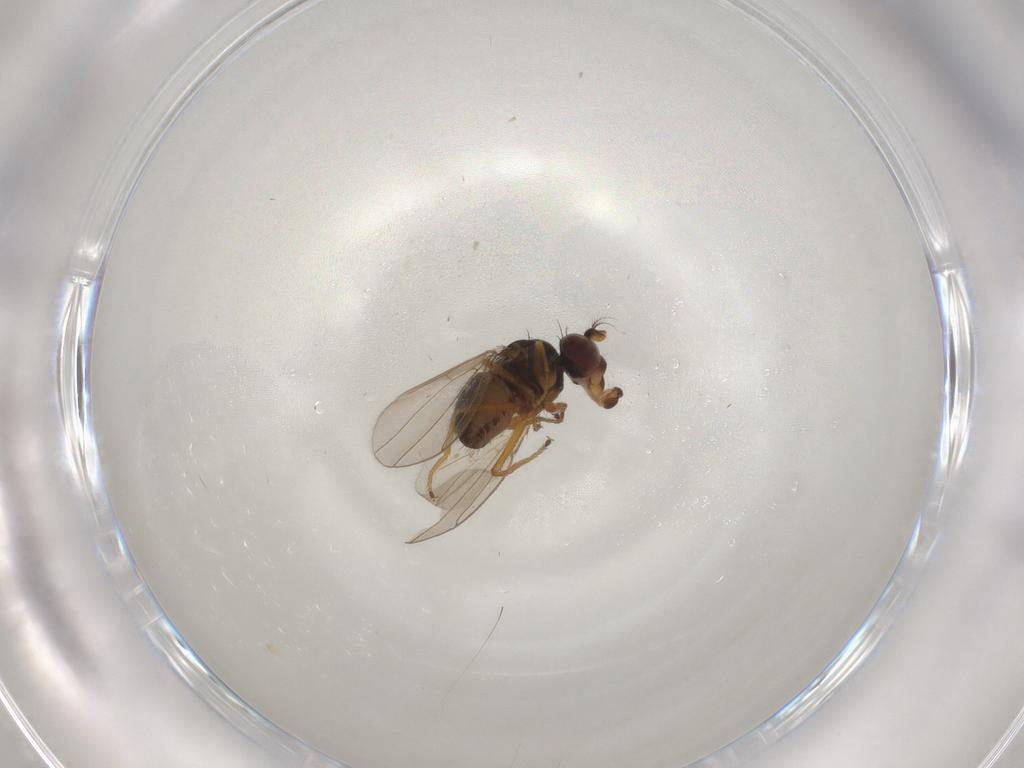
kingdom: Animalia
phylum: Arthropoda
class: Insecta
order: Diptera
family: Ephydridae
